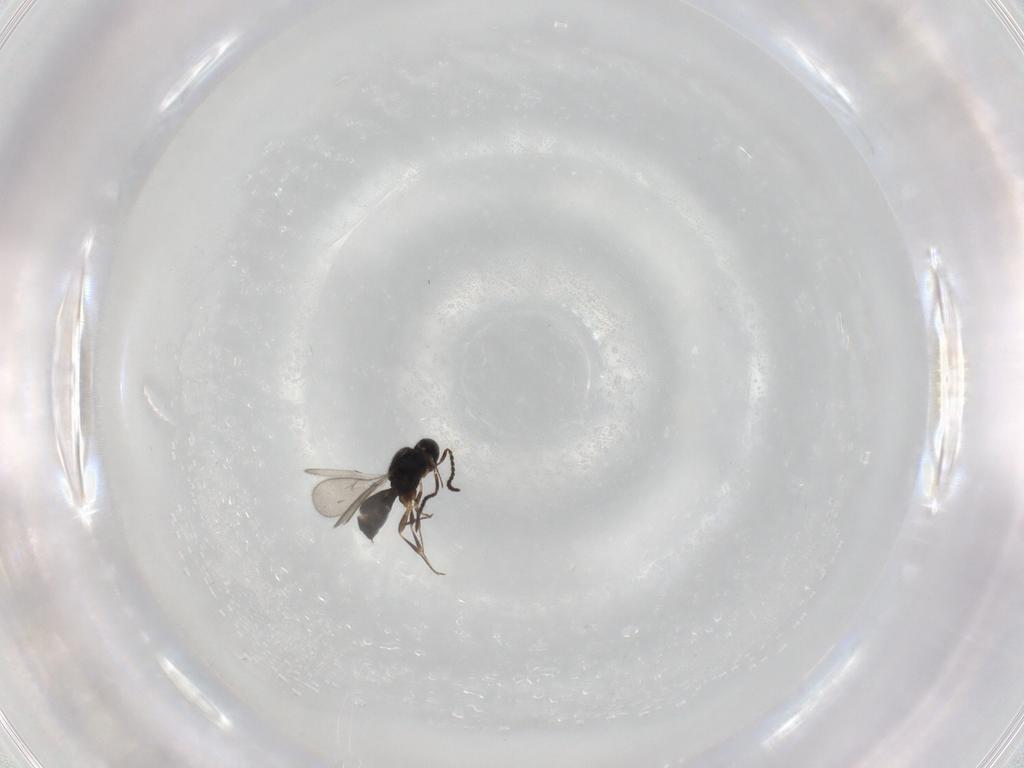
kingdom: Animalia
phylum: Arthropoda
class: Insecta
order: Hymenoptera
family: Scelionidae
